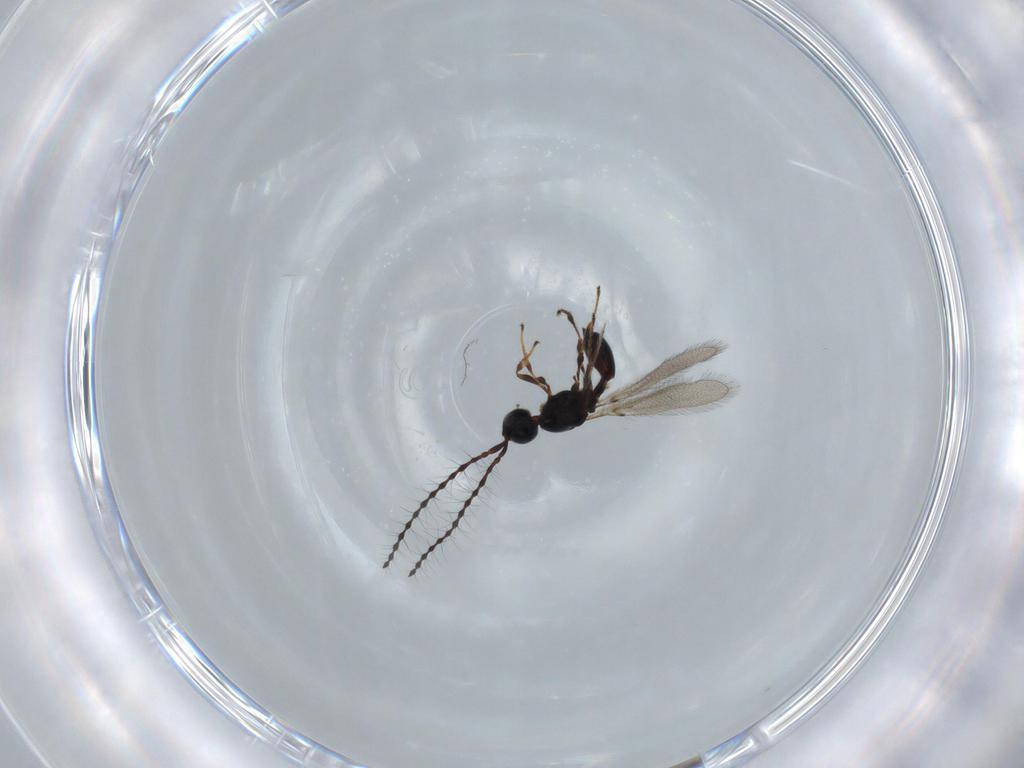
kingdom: Animalia
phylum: Arthropoda
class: Insecta
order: Hymenoptera
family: Diapriidae
